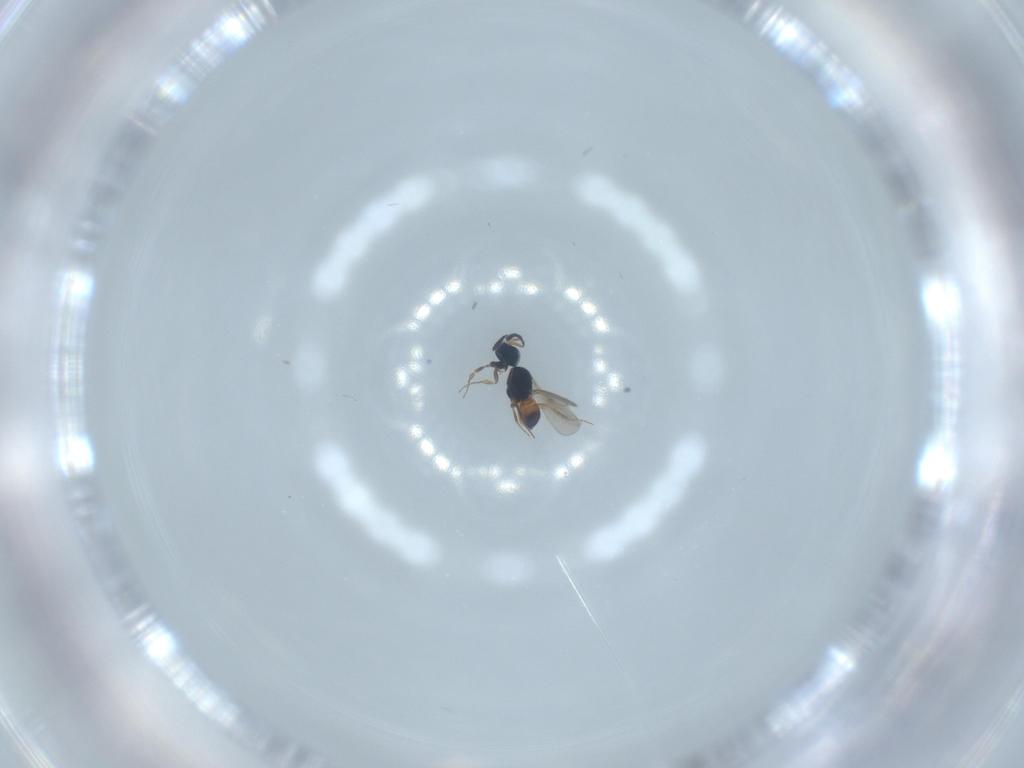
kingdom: Animalia
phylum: Arthropoda
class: Insecta
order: Hymenoptera
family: Scelionidae
